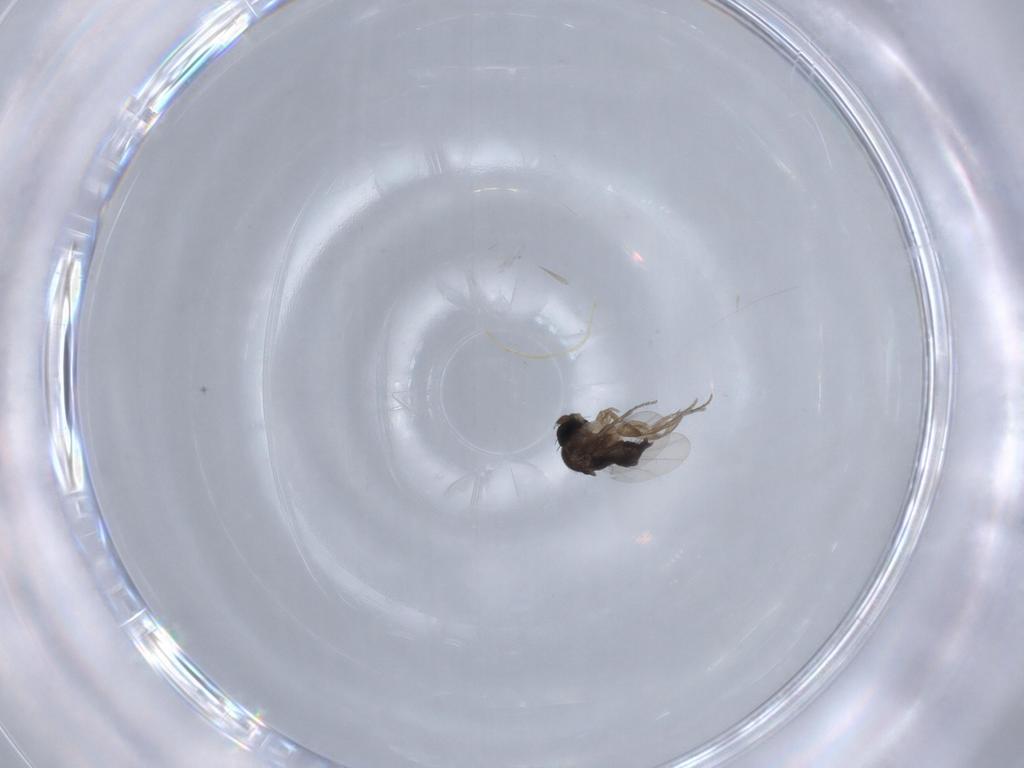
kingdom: Animalia
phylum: Arthropoda
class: Insecta
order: Diptera
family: Phoridae
